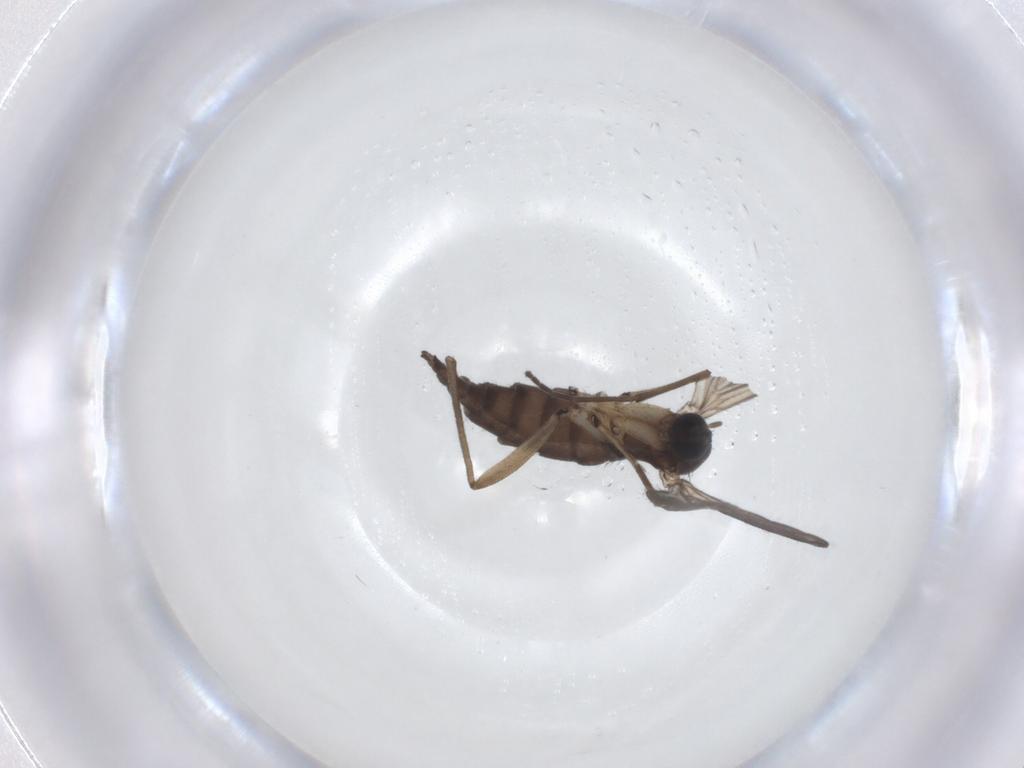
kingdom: Animalia
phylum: Arthropoda
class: Insecta
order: Diptera
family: Sciaridae
